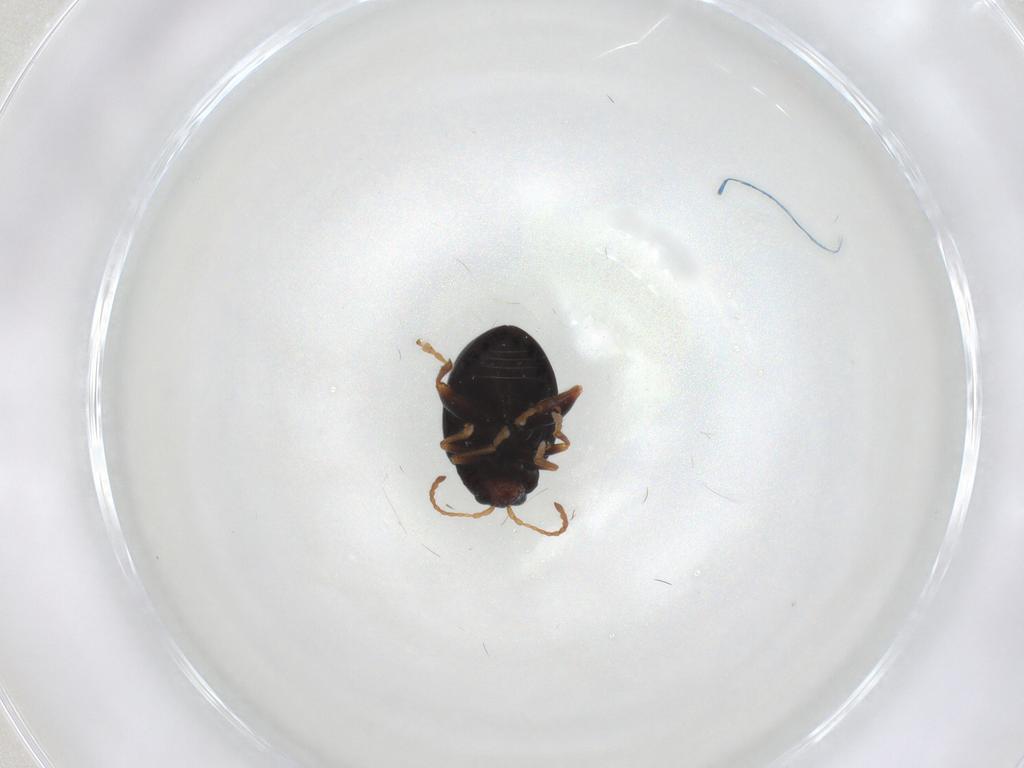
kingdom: Animalia
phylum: Arthropoda
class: Insecta
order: Coleoptera
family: Chrysomelidae
